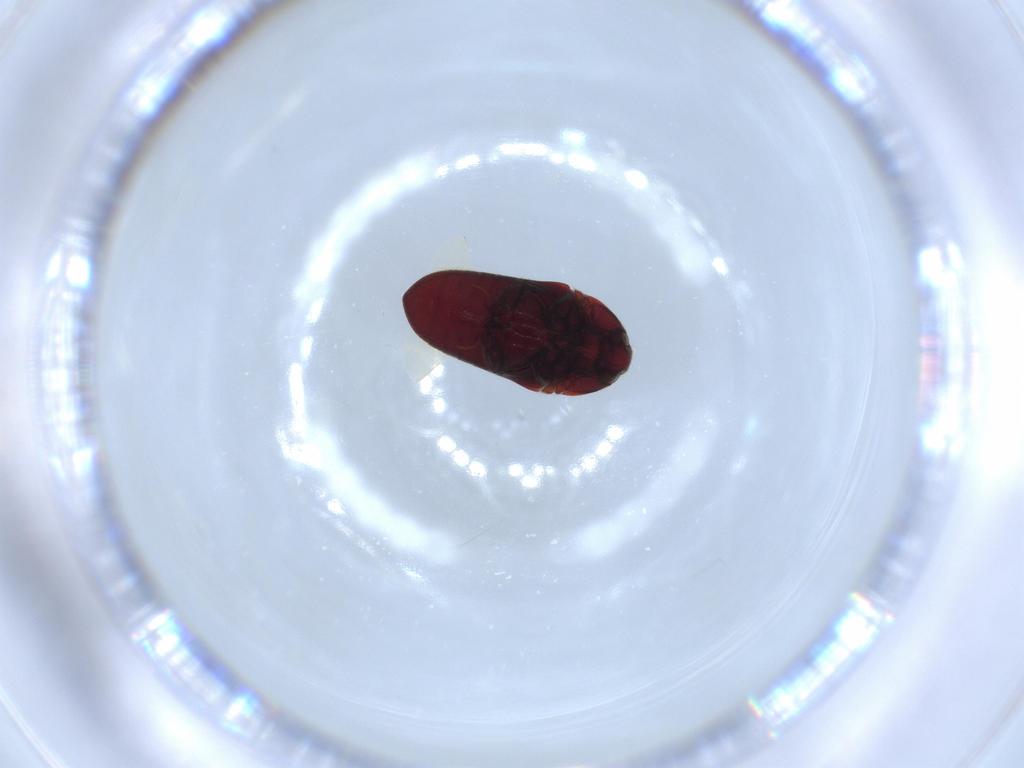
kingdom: Animalia
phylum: Arthropoda
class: Insecta
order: Coleoptera
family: Throscidae
